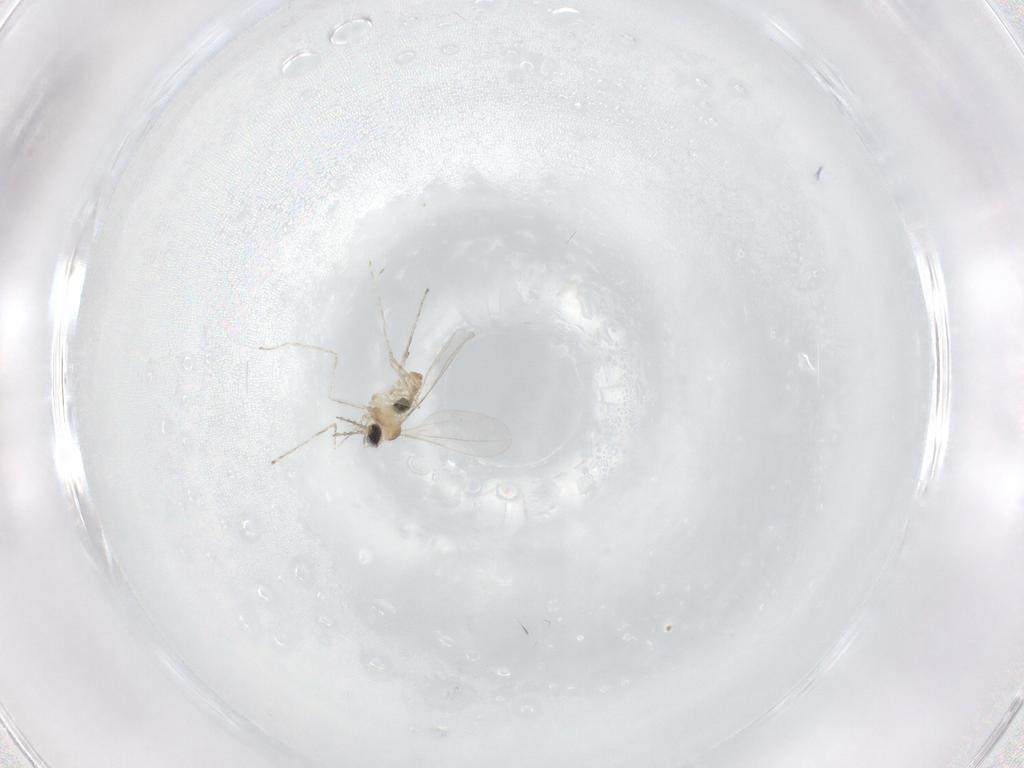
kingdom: Animalia
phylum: Arthropoda
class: Insecta
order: Diptera
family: Cecidomyiidae
